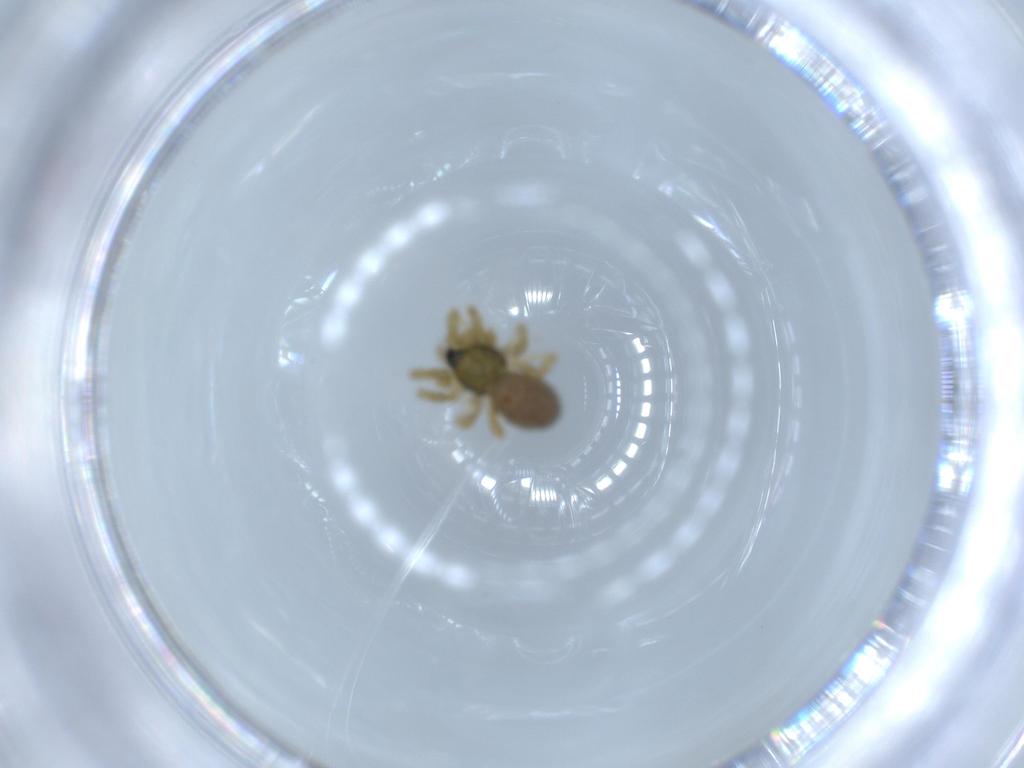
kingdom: Animalia
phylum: Arthropoda
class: Arachnida
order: Araneae
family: Linyphiidae
